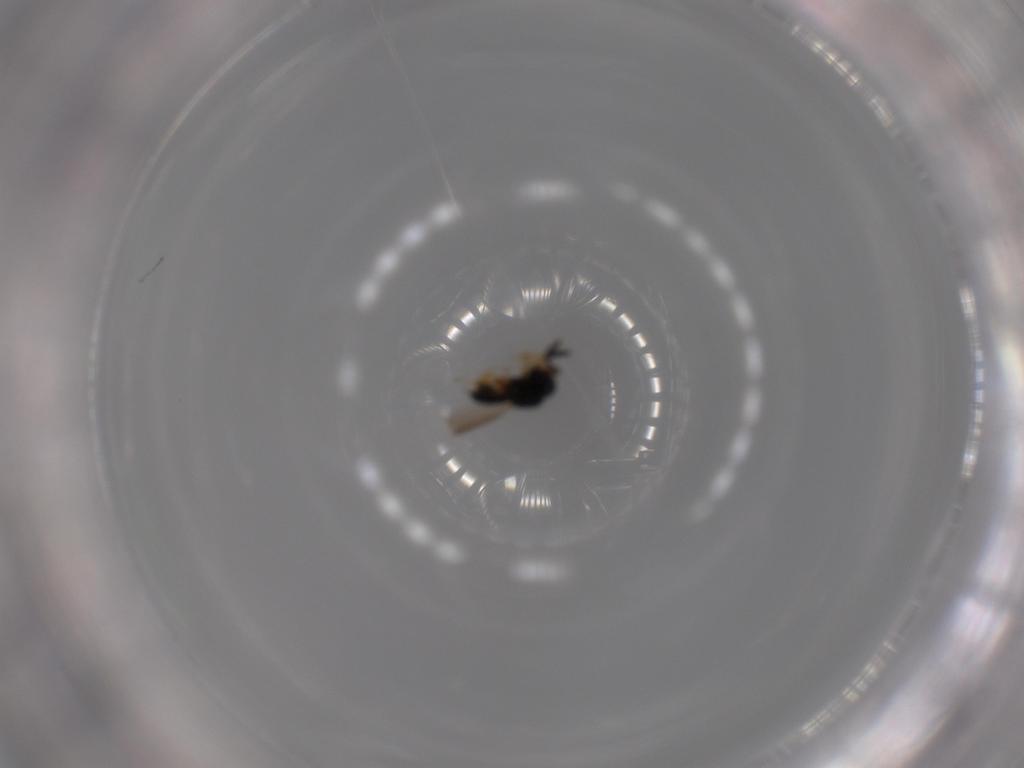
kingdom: Animalia
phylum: Arthropoda
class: Insecta
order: Hymenoptera
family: Scelionidae
